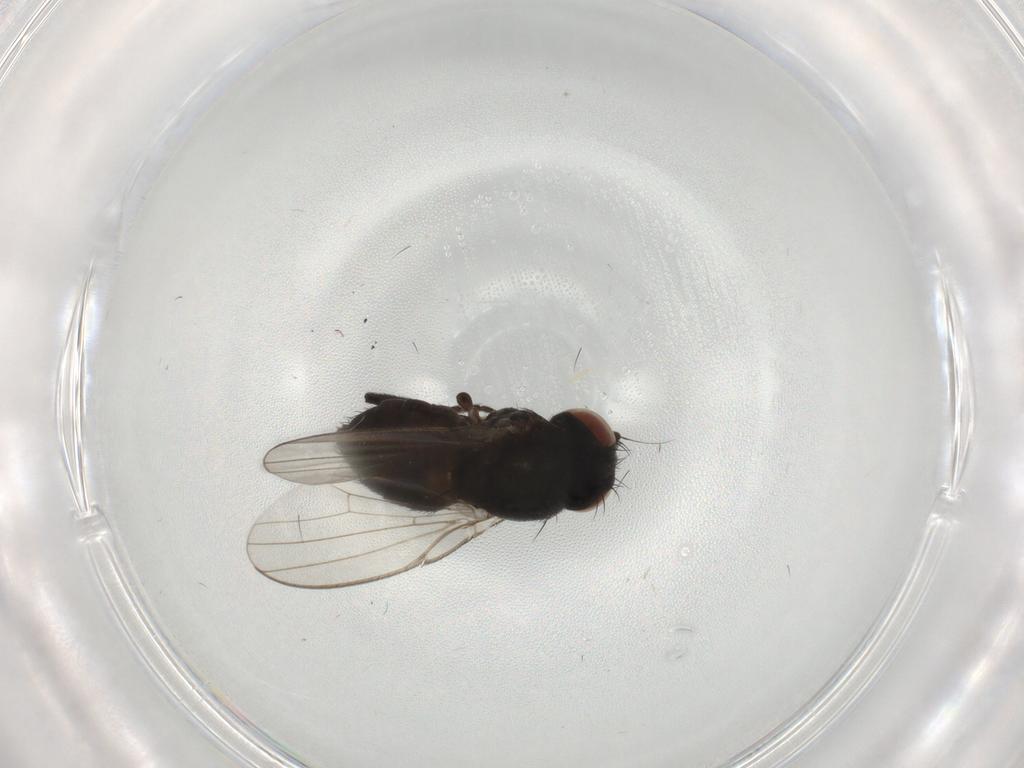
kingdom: Animalia
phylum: Arthropoda
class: Insecta
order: Diptera
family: Milichiidae
